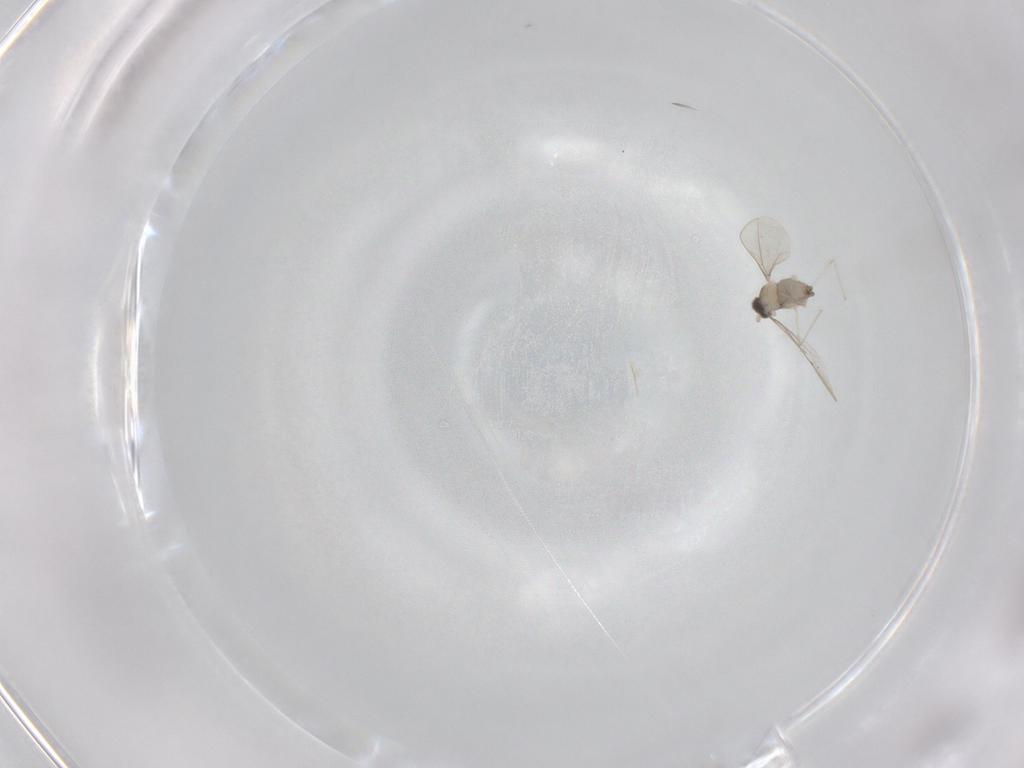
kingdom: Animalia
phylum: Arthropoda
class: Insecta
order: Diptera
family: Cecidomyiidae
